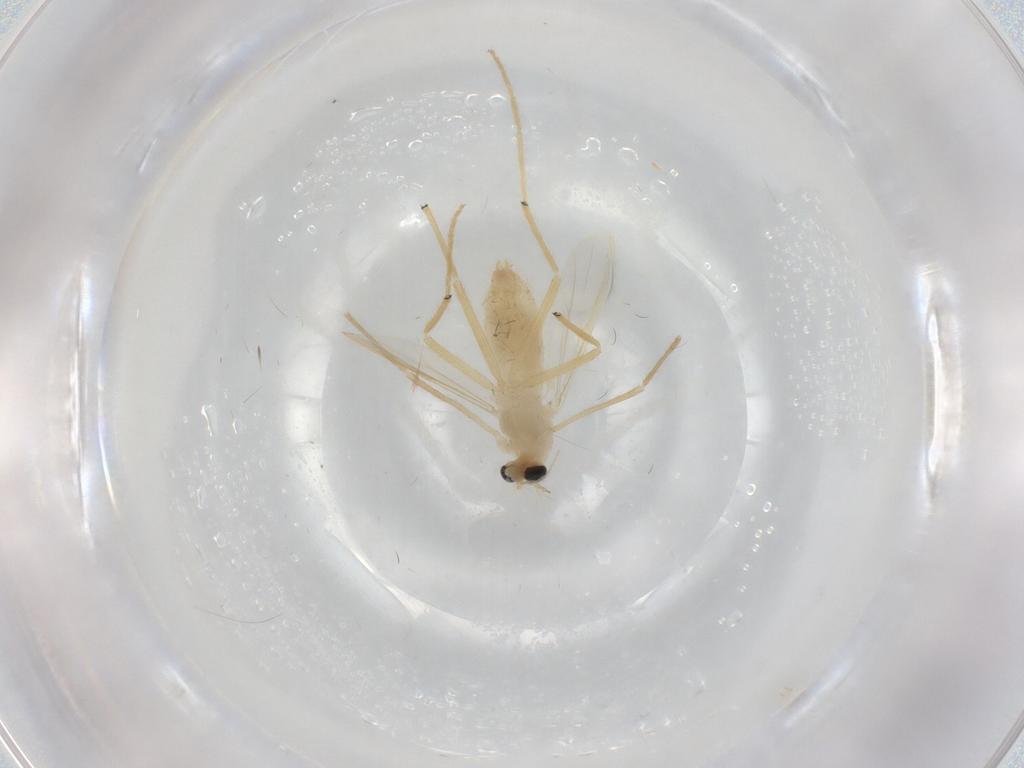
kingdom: Animalia
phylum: Arthropoda
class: Insecta
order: Diptera
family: Chironomidae
